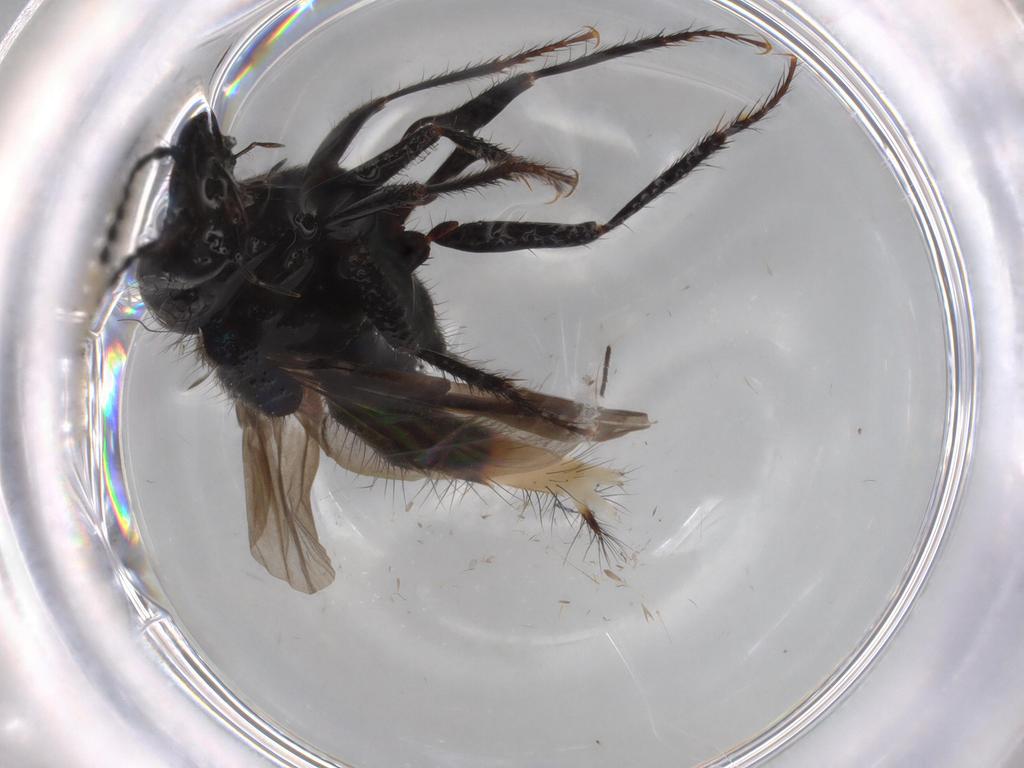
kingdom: Animalia
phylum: Arthropoda
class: Insecta
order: Coleoptera
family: Staphylinidae
